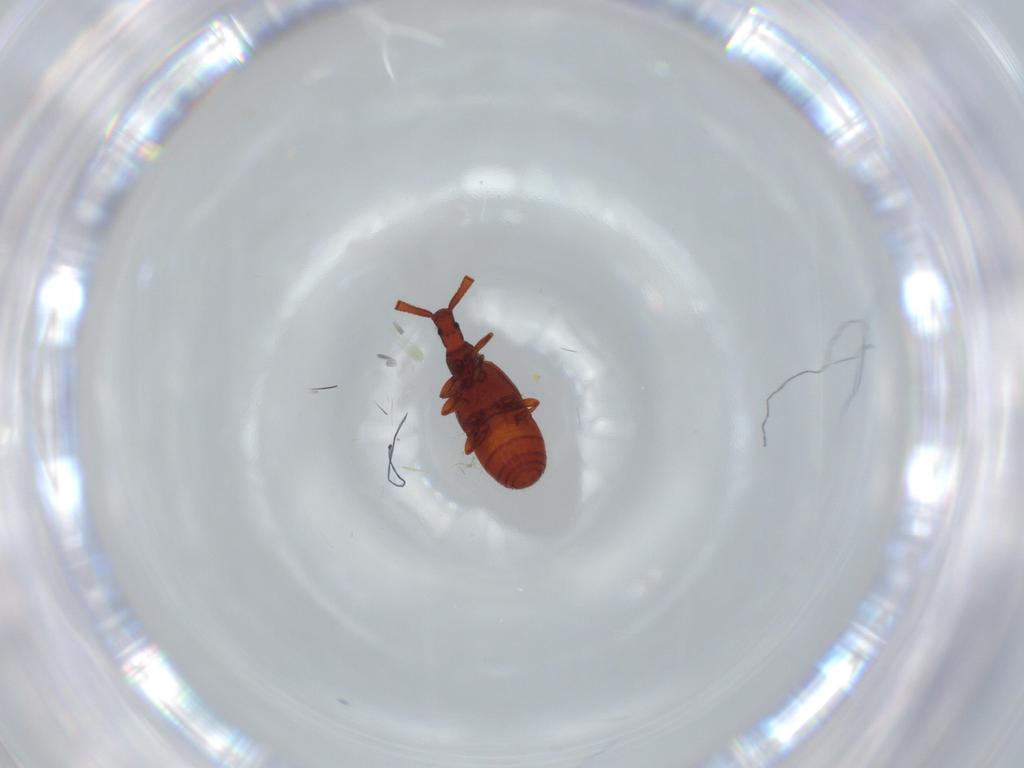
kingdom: Animalia
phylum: Arthropoda
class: Insecta
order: Coleoptera
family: Staphylinidae
